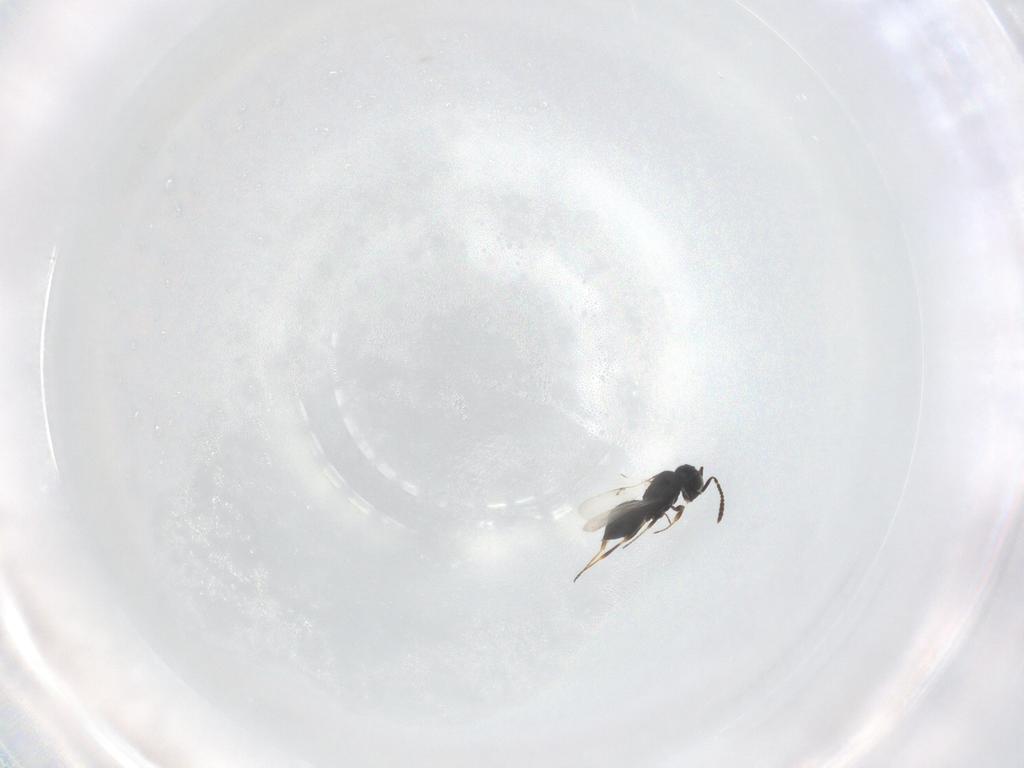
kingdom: Animalia
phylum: Arthropoda
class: Insecta
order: Hymenoptera
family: Scelionidae
